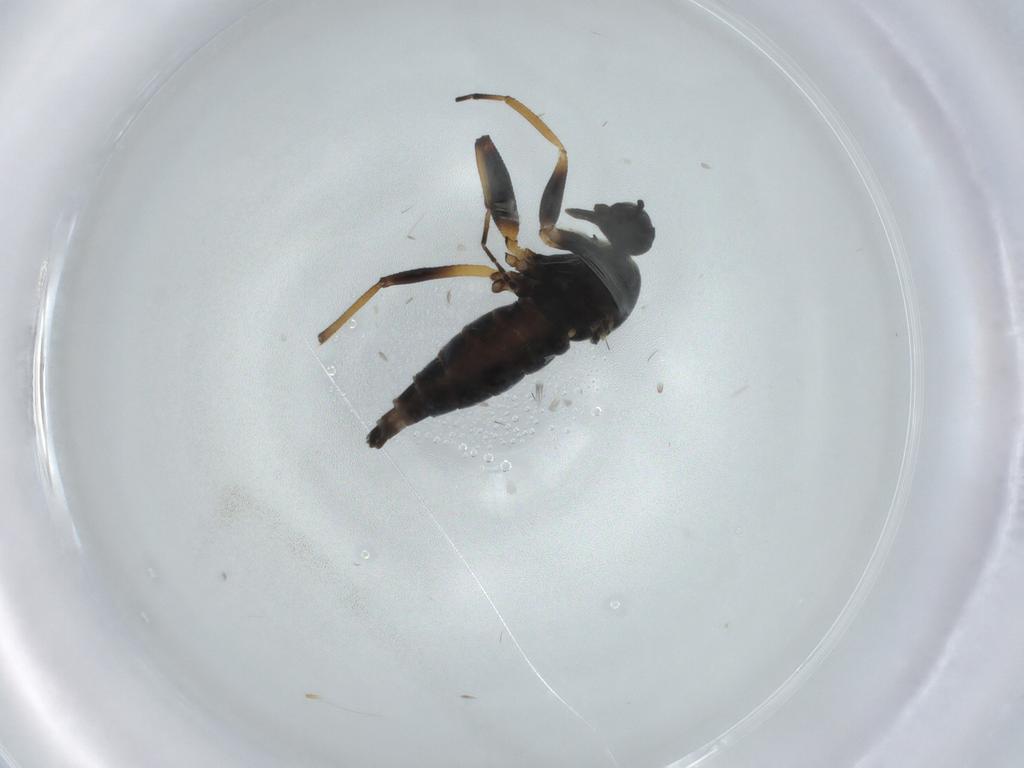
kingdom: Animalia
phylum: Arthropoda
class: Insecta
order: Diptera
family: Hybotidae
